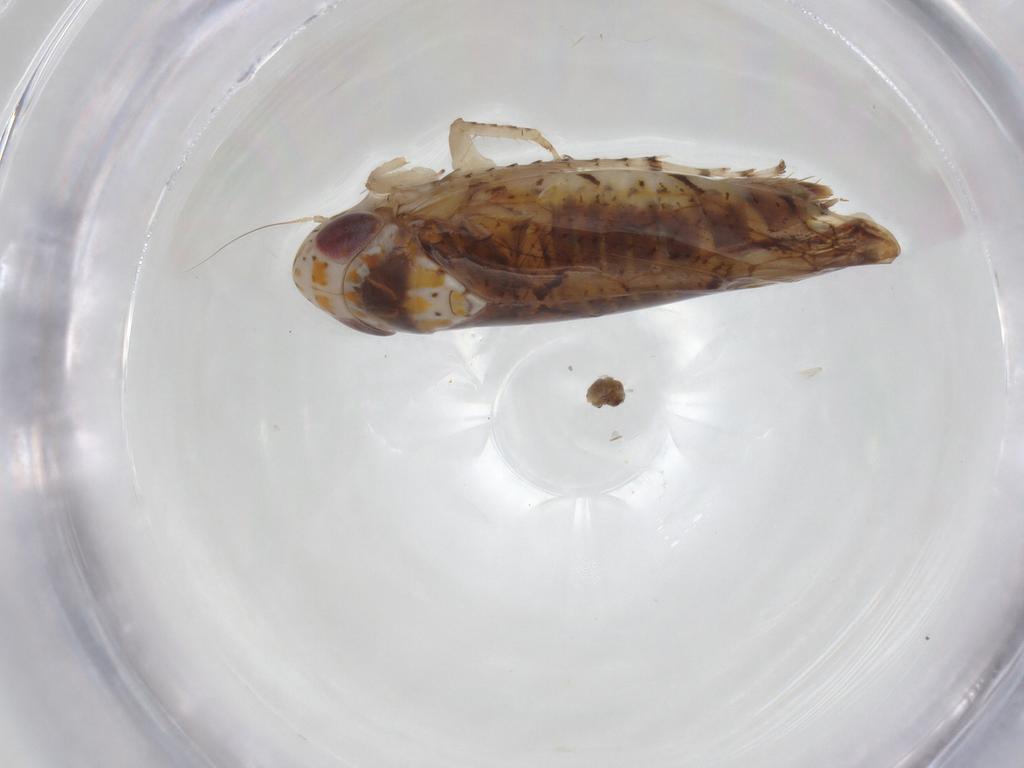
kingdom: Animalia
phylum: Arthropoda
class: Insecta
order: Hemiptera
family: Cicadellidae
